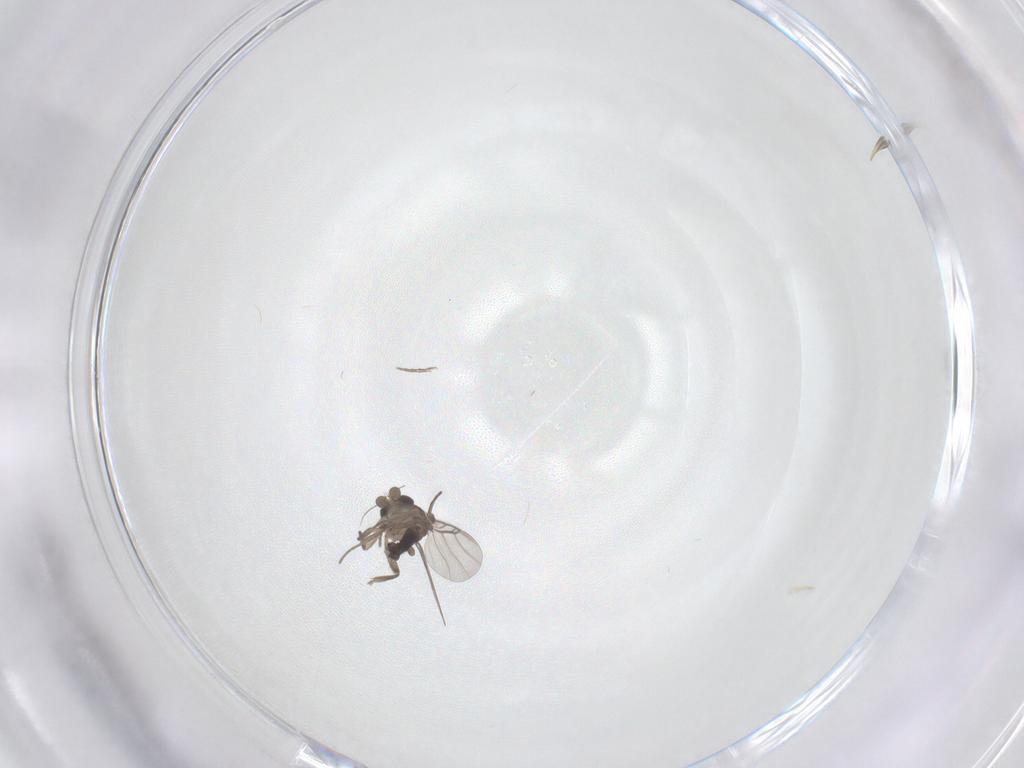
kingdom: Animalia
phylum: Arthropoda
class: Insecta
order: Diptera
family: Phoridae
